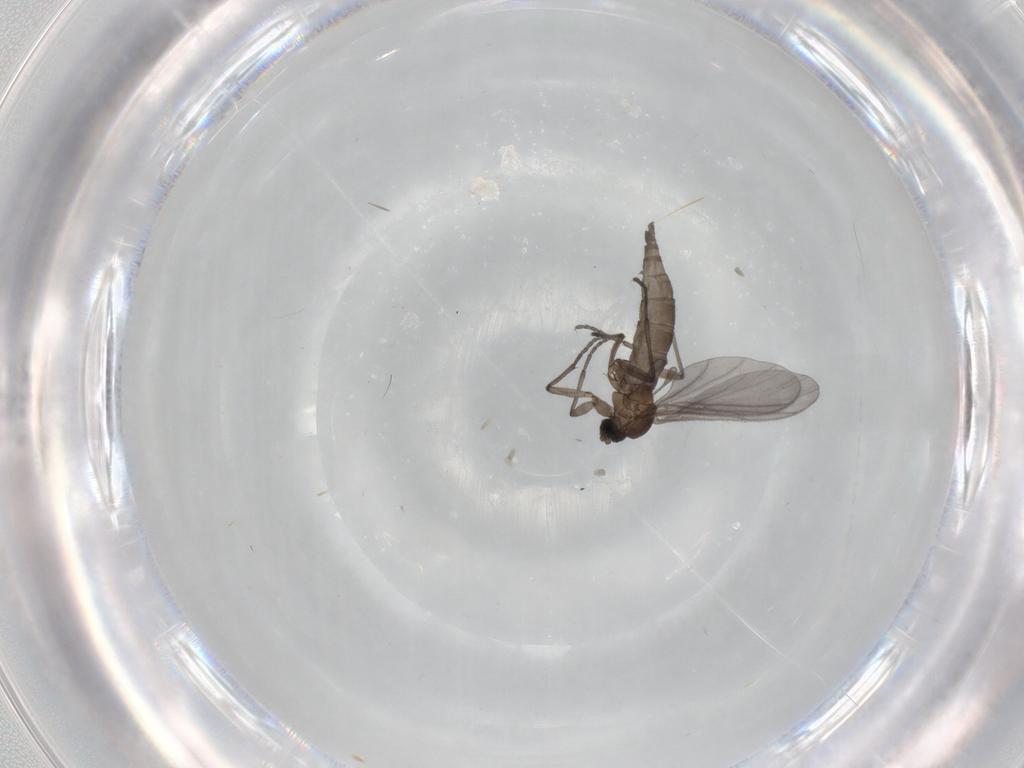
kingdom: Animalia
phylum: Arthropoda
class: Insecta
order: Diptera
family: Sciaridae
